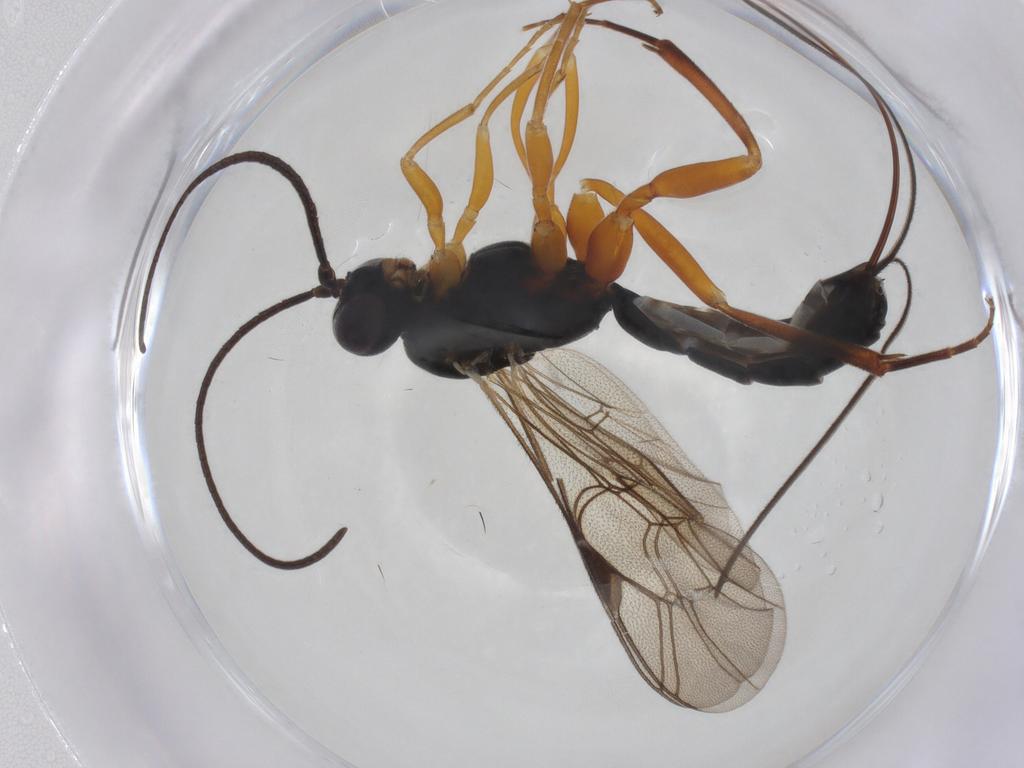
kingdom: Animalia
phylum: Arthropoda
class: Insecta
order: Hymenoptera
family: Ichneumonidae
